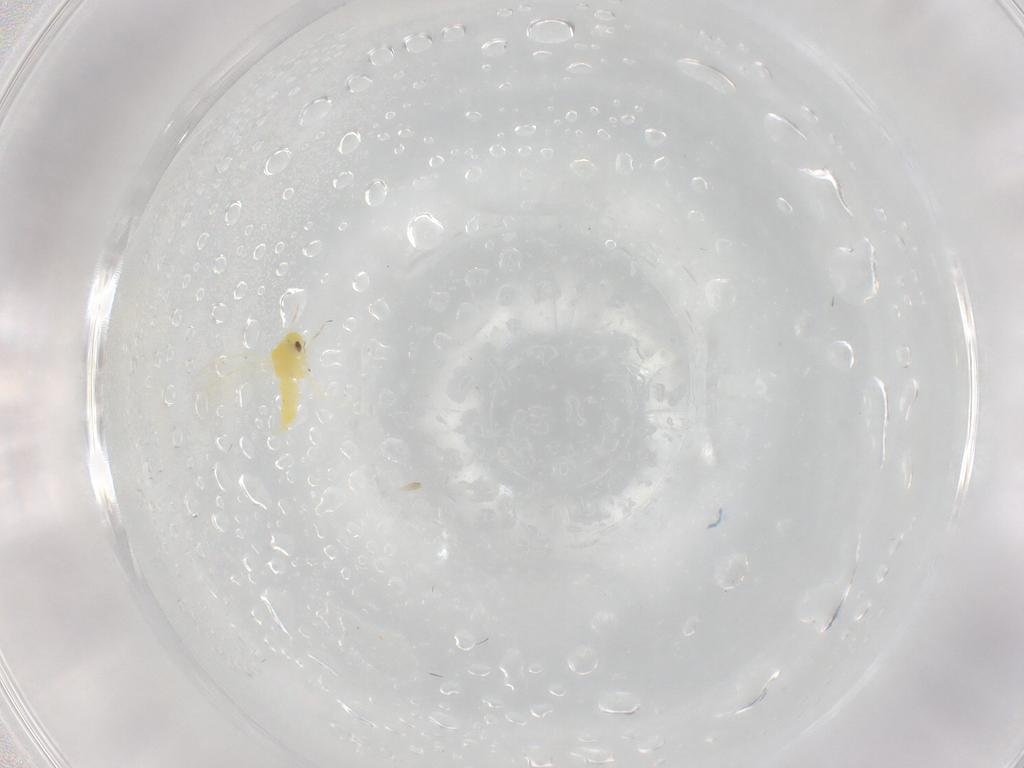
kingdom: Animalia
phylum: Arthropoda
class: Insecta
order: Hemiptera
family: Aleyrodidae
